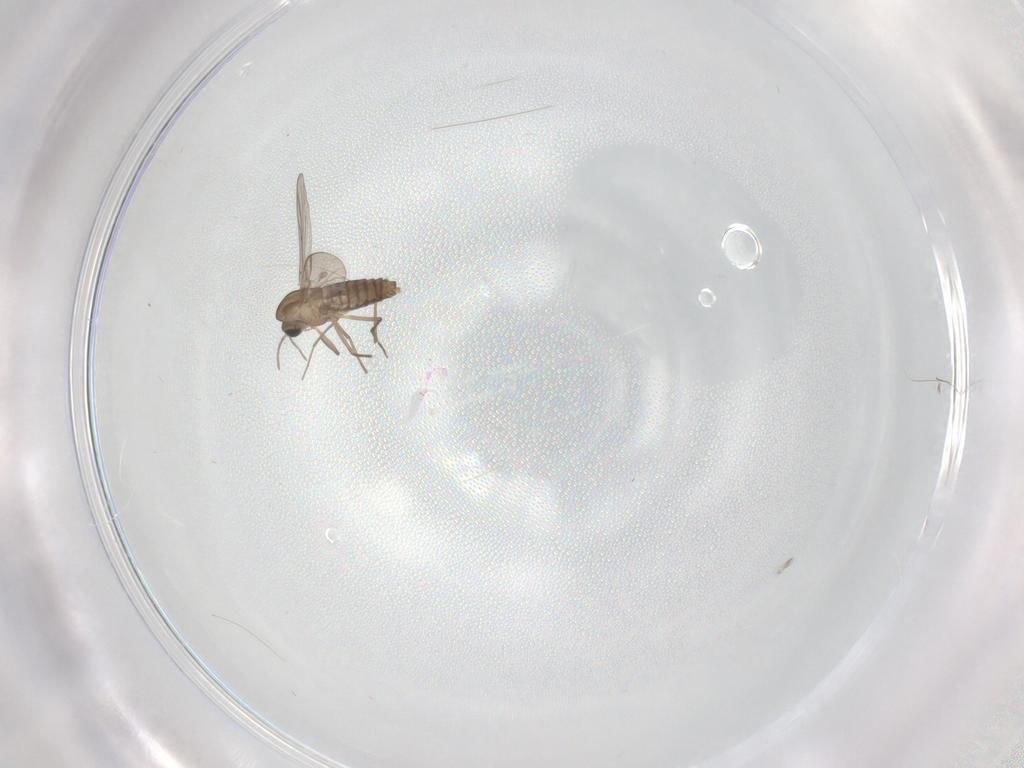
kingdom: Animalia
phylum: Arthropoda
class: Insecta
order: Diptera
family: Chironomidae
